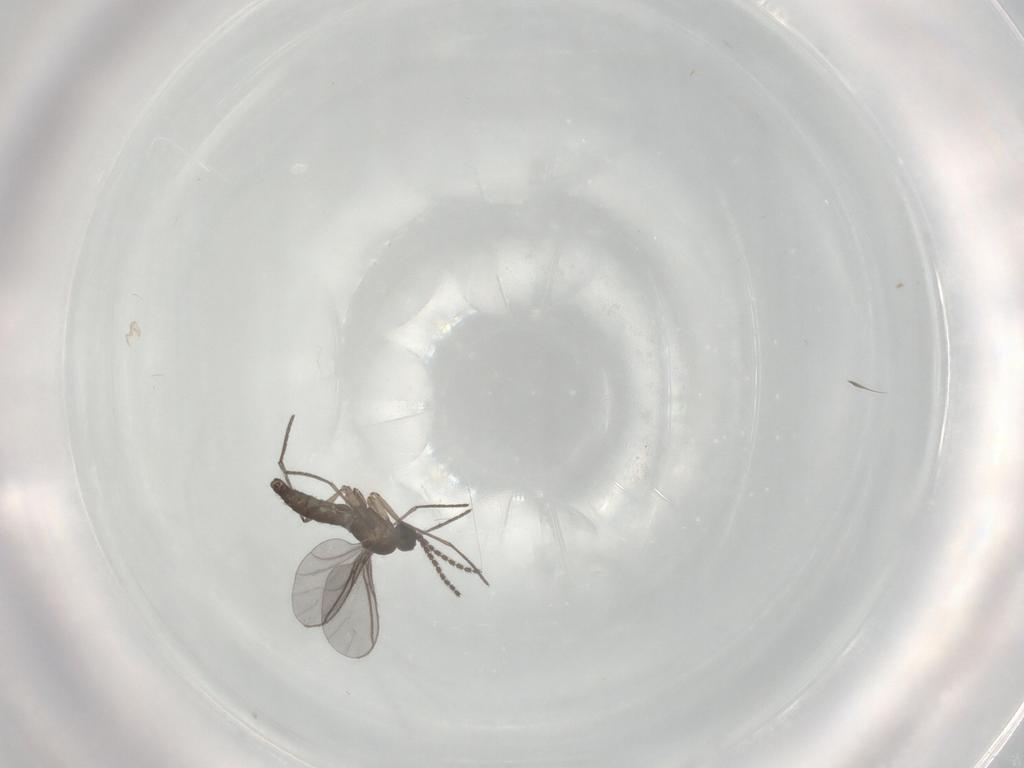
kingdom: Animalia
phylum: Arthropoda
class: Insecta
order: Diptera
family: Sciaridae
